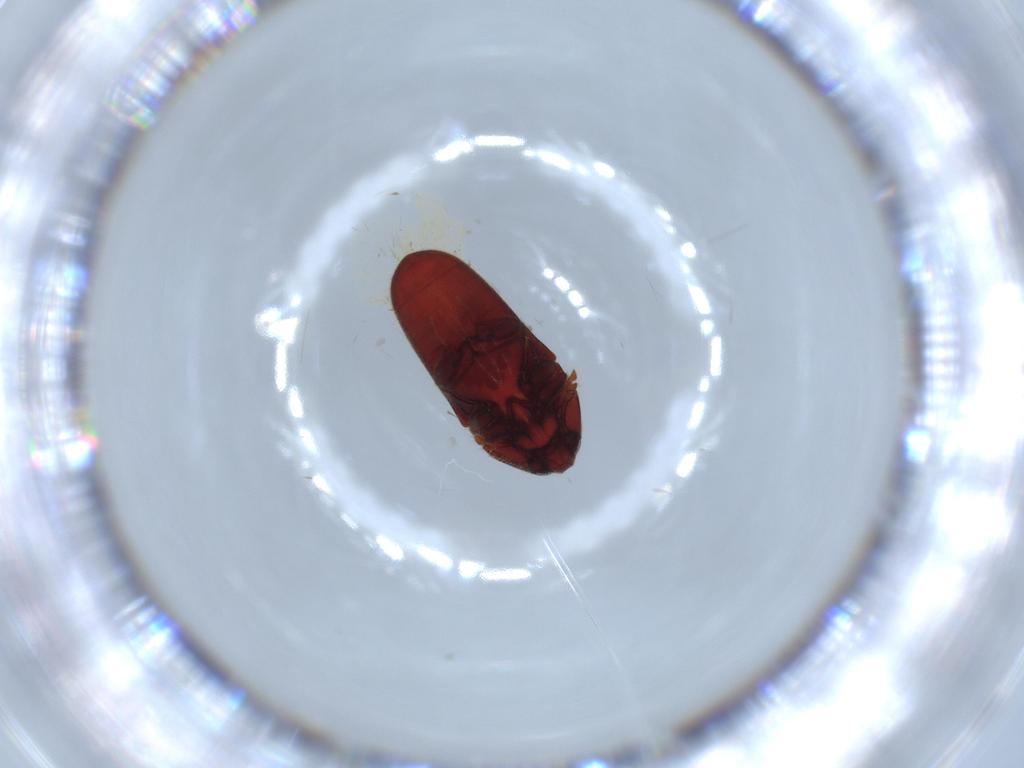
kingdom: Animalia
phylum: Arthropoda
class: Insecta
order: Coleoptera
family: Throscidae
